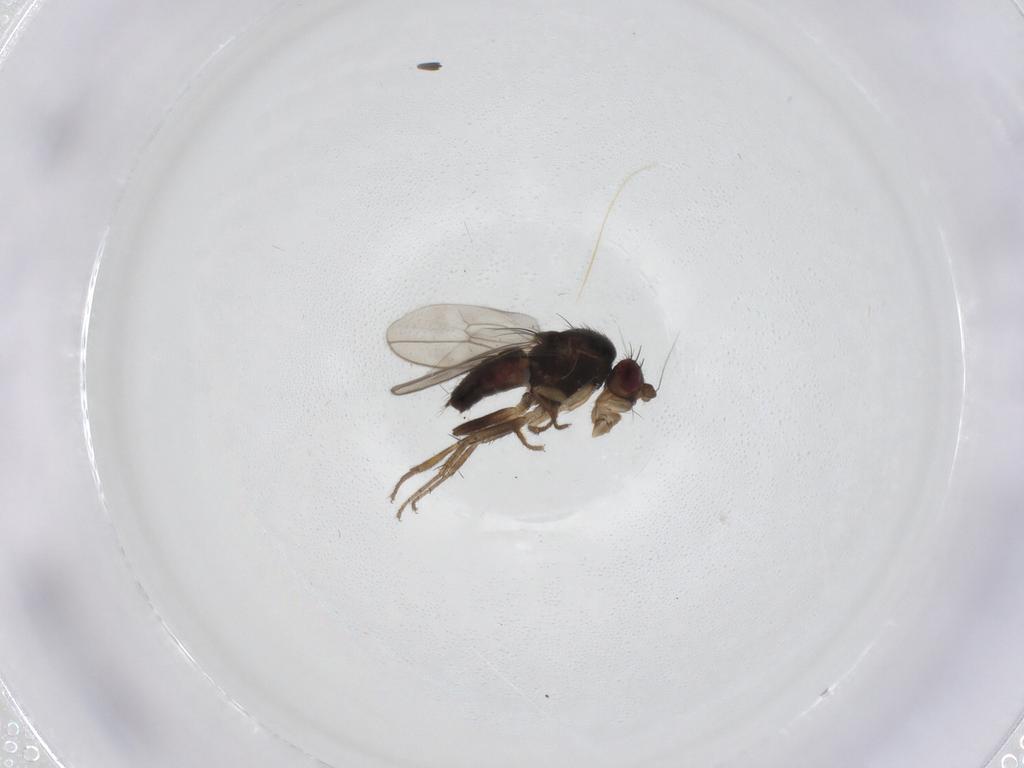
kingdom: Animalia
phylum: Arthropoda
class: Insecta
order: Diptera
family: Sphaeroceridae
